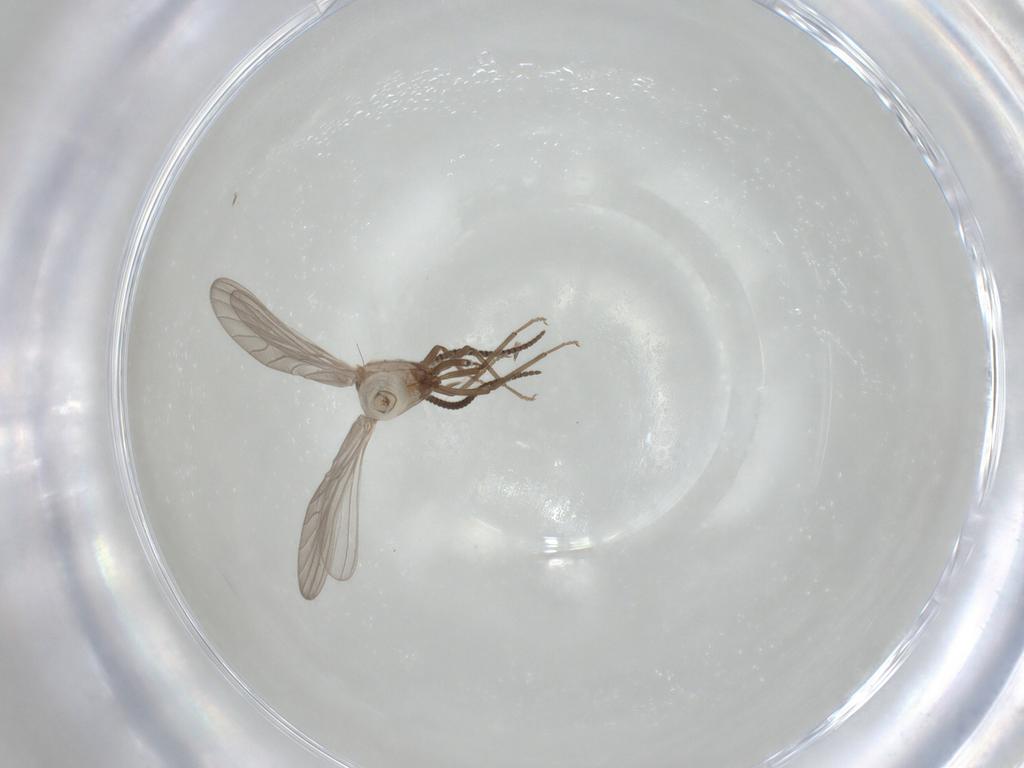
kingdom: Animalia
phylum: Arthropoda
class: Insecta
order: Neuroptera
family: Coniopterygidae
